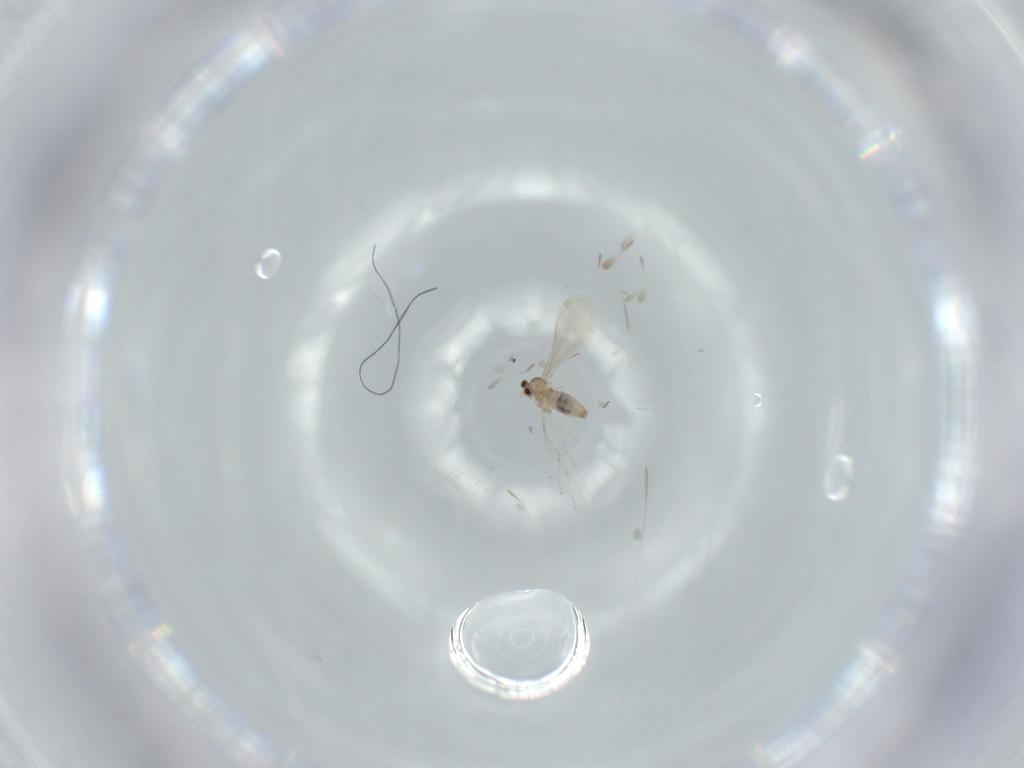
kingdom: Animalia
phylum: Arthropoda
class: Insecta
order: Diptera
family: Cecidomyiidae
